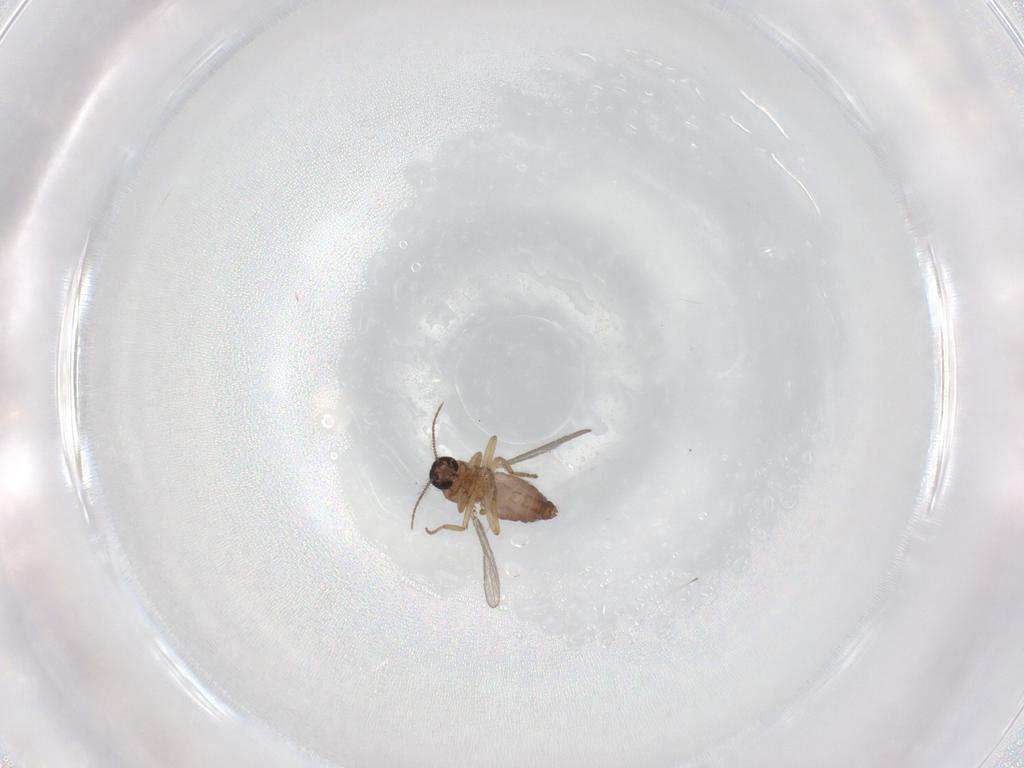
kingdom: Animalia
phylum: Arthropoda
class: Insecta
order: Diptera
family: Ceratopogonidae
